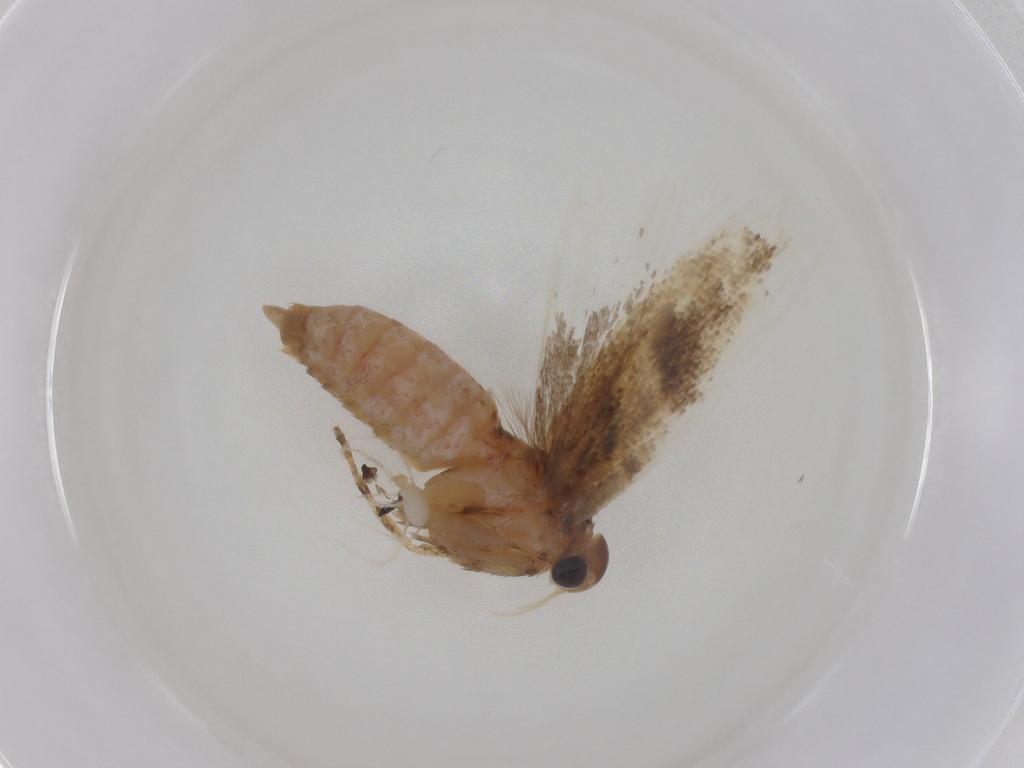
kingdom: Animalia
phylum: Arthropoda
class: Insecta
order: Lepidoptera
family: Gelechiidae
